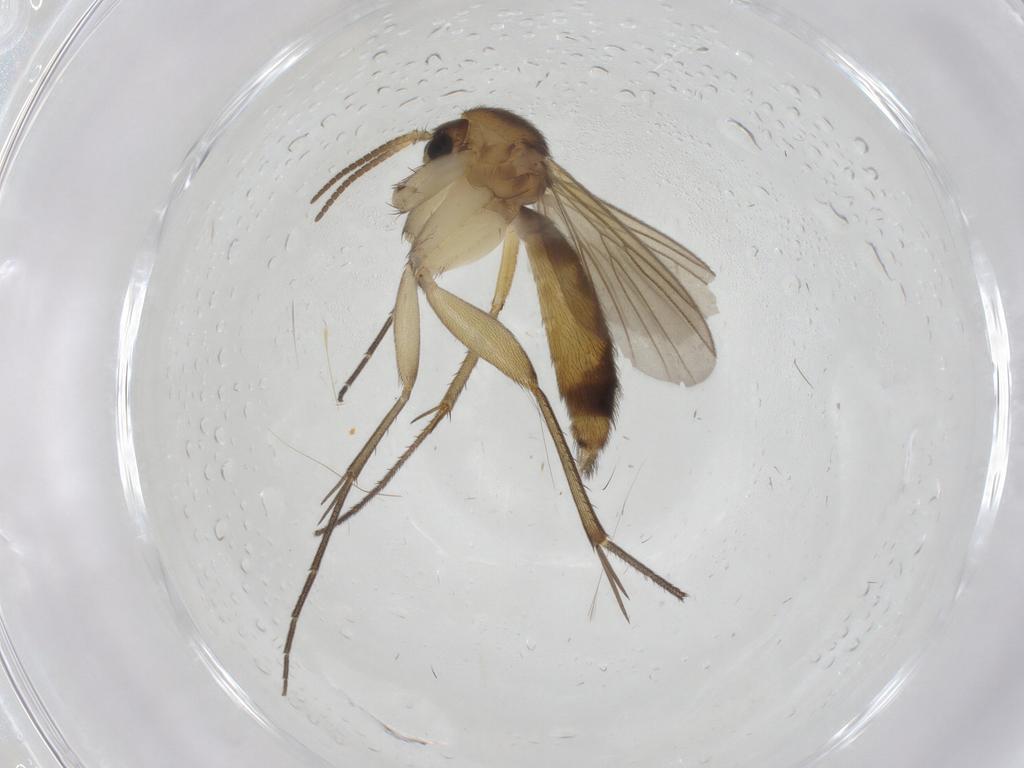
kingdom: Animalia
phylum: Arthropoda
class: Insecta
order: Diptera
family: Mycetophilidae
